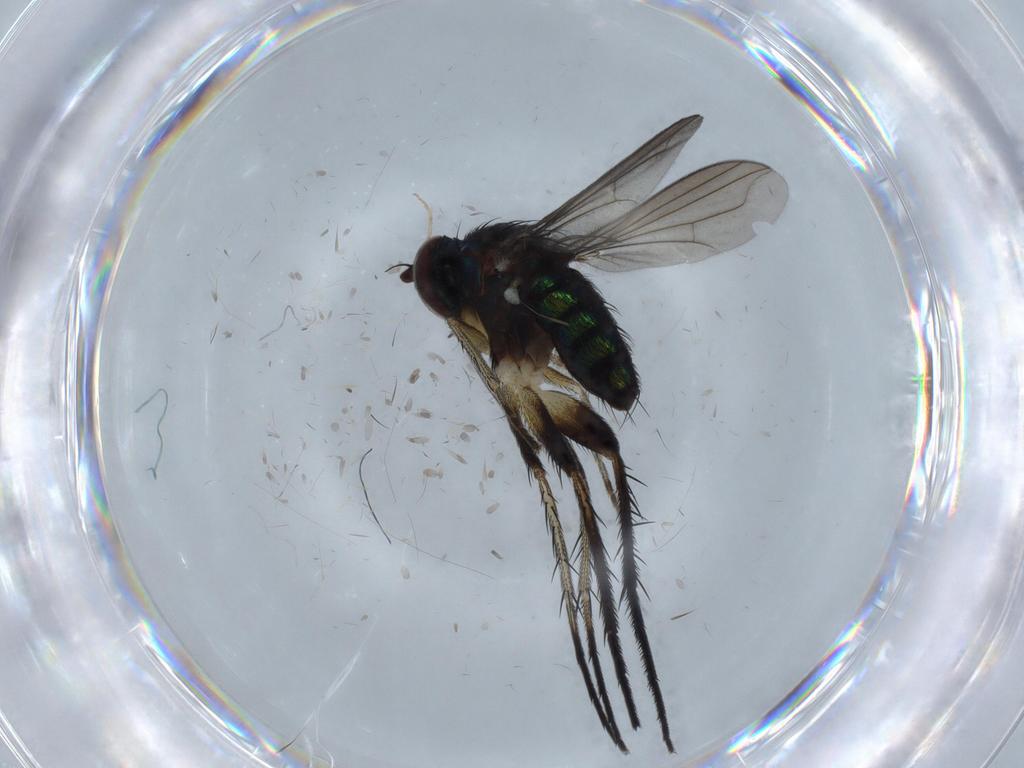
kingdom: Animalia
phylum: Arthropoda
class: Insecta
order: Diptera
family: Dolichopodidae
